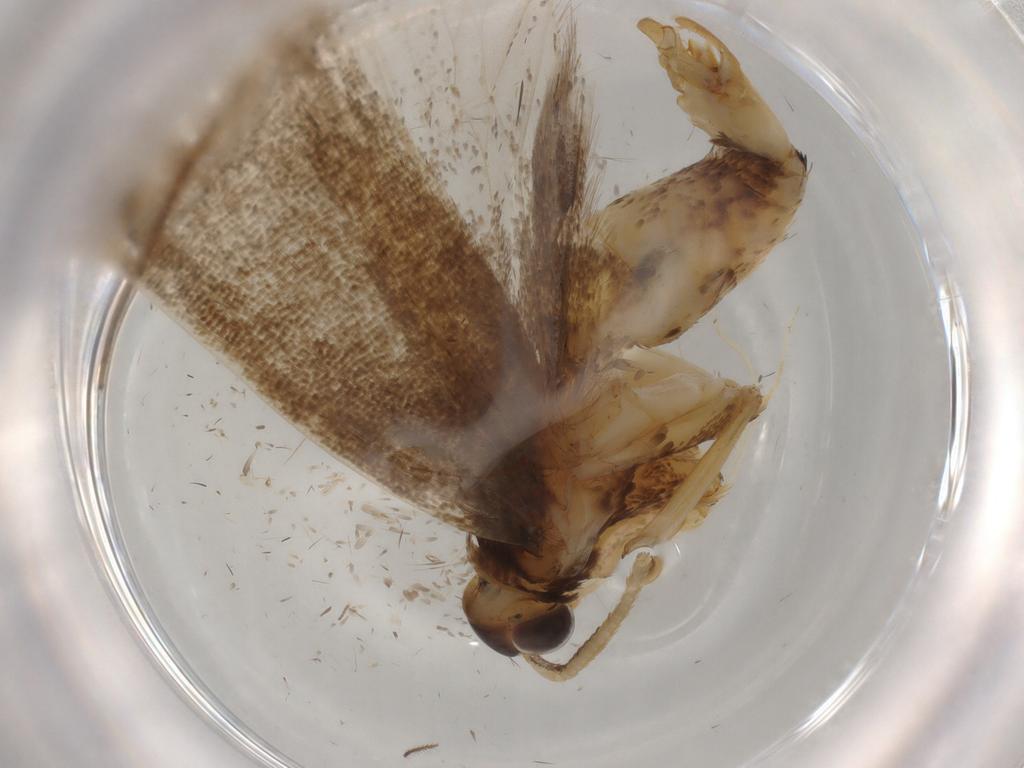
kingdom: Animalia
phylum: Arthropoda
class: Insecta
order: Lepidoptera
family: Lecithoceridae
